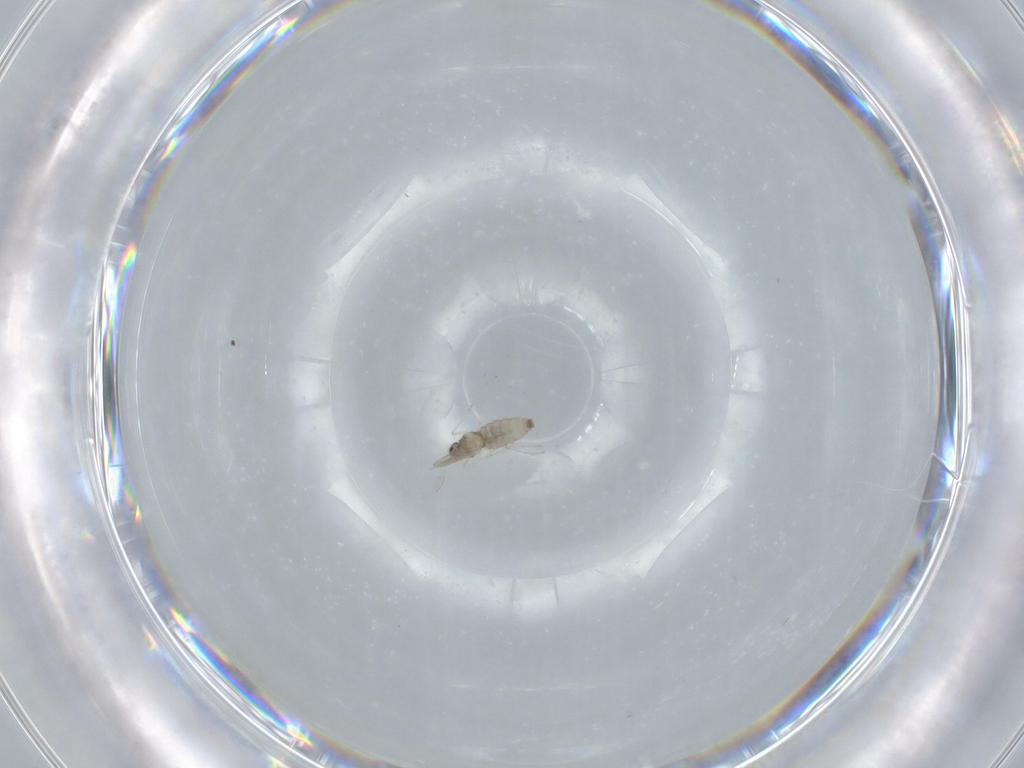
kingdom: Animalia
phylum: Arthropoda
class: Insecta
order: Diptera
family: Cecidomyiidae
